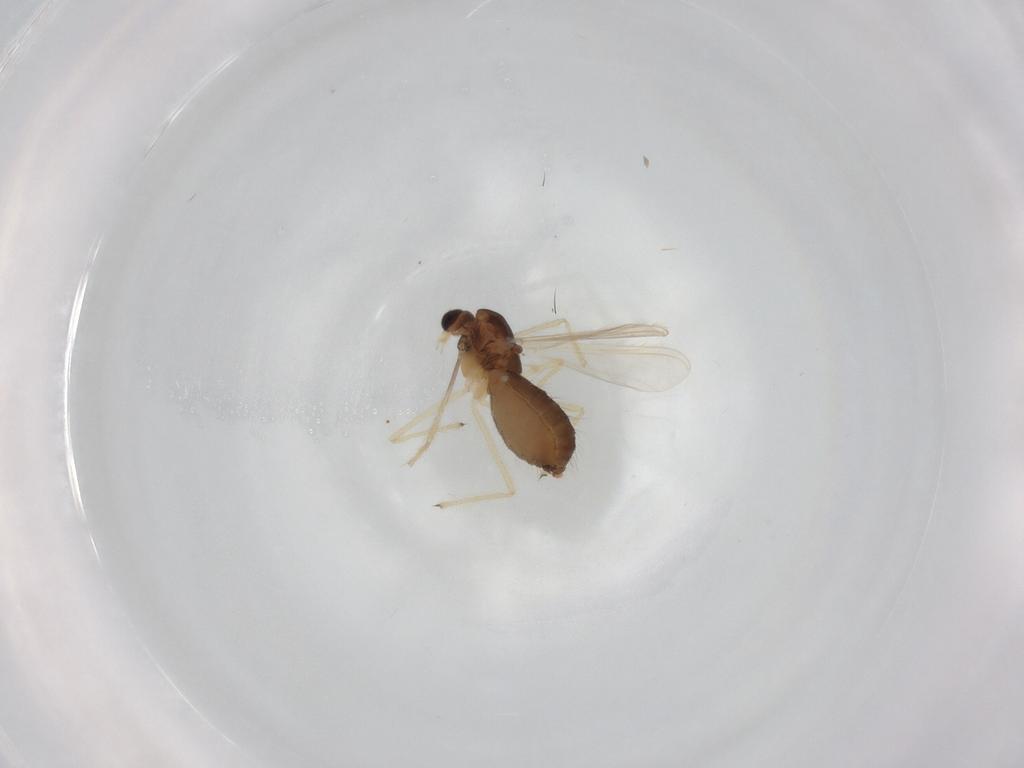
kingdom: Animalia
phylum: Arthropoda
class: Insecta
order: Diptera
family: Chironomidae
